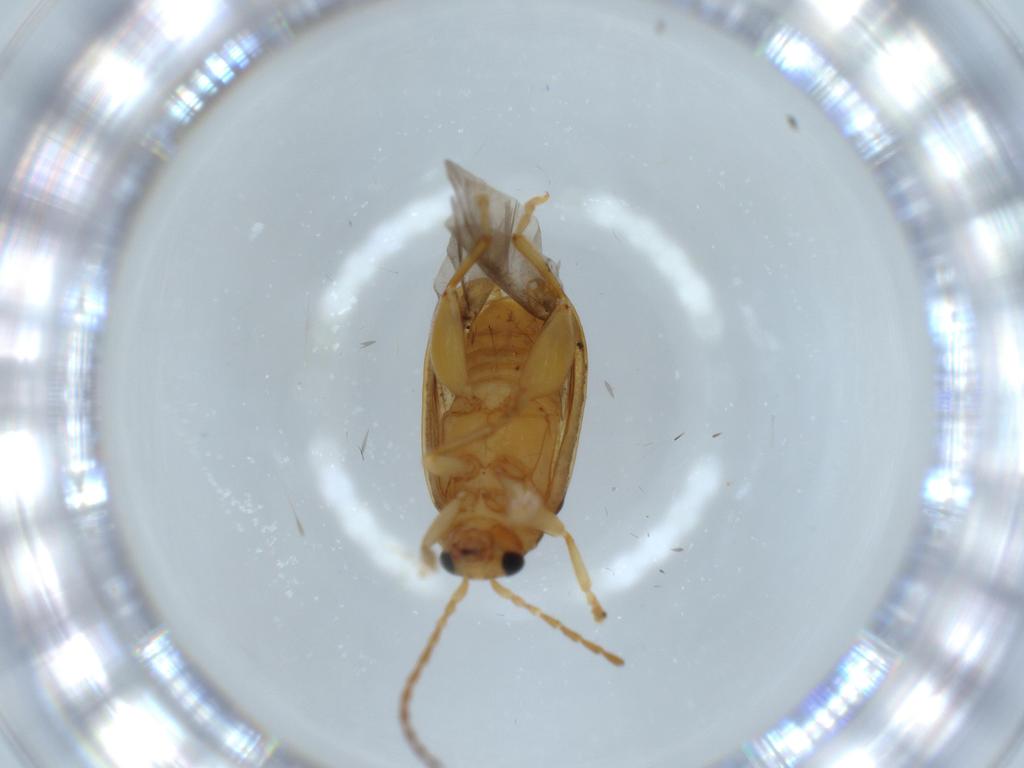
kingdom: Animalia
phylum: Arthropoda
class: Insecta
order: Coleoptera
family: Chrysomelidae
